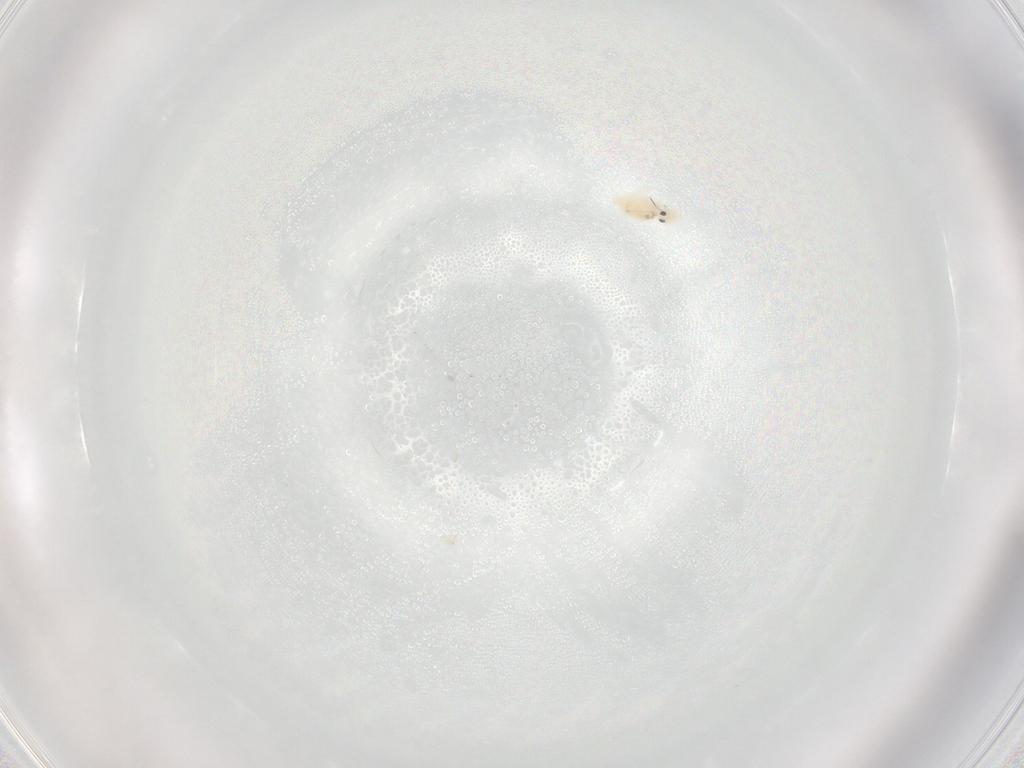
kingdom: Animalia
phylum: Arthropoda
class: Collembola
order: Symphypleona
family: Bourletiellidae
